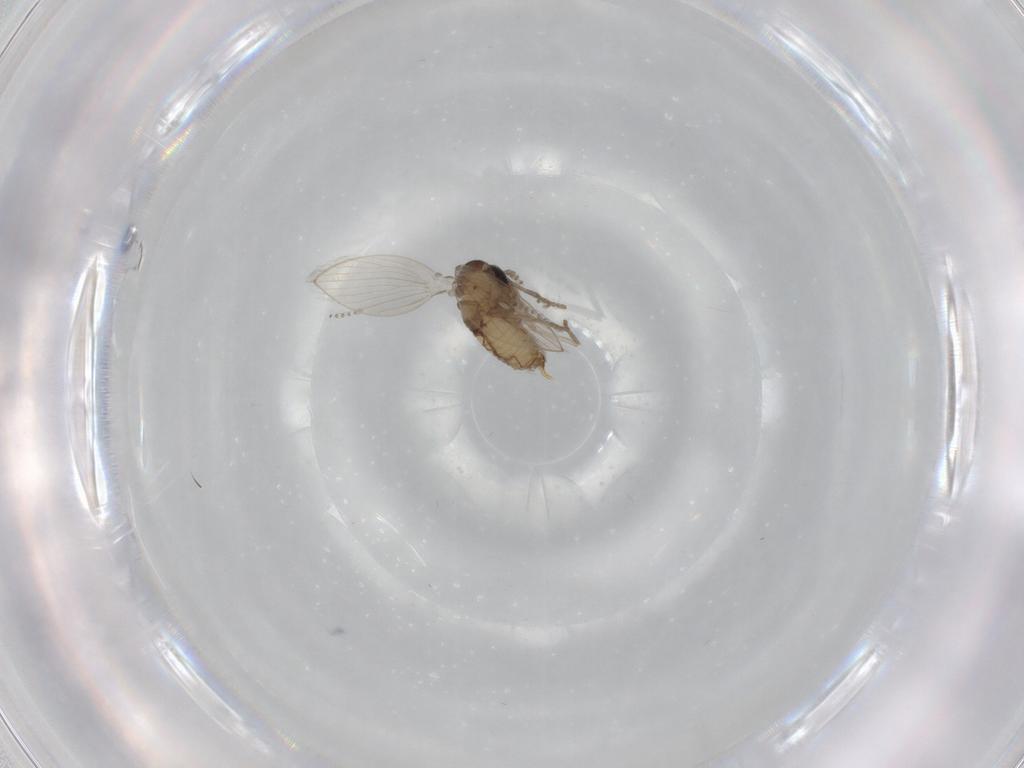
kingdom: Animalia
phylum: Arthropoda
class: Insecta
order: Diptera
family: Psychodidae
